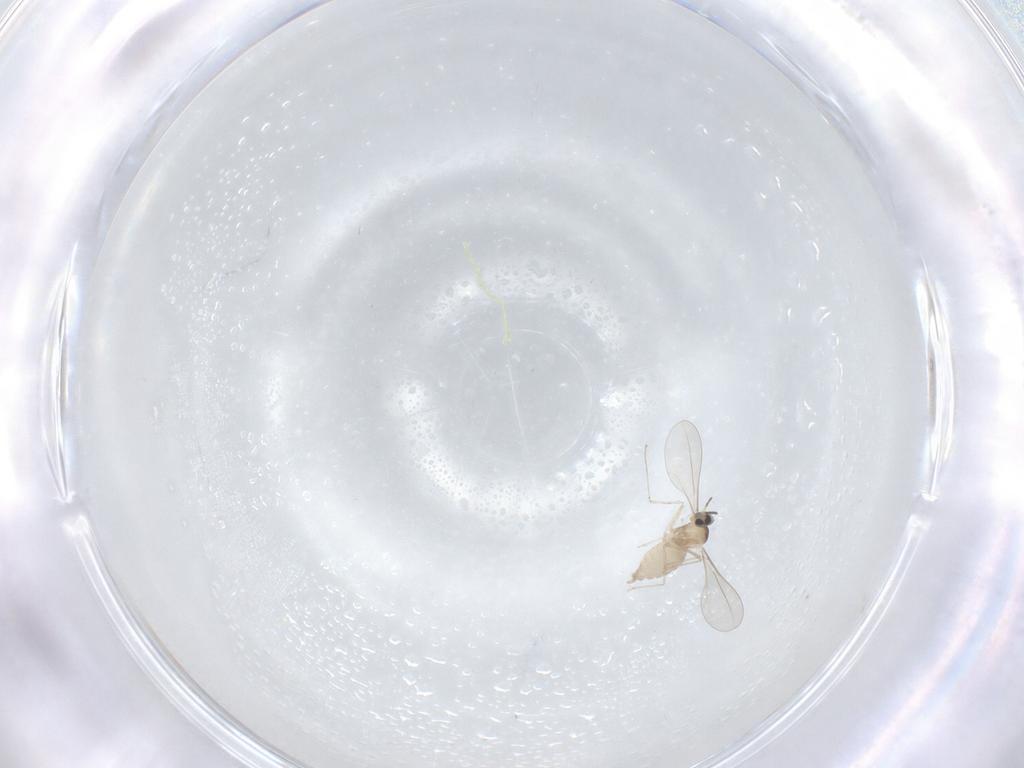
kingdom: Animalia
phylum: Arthropoda
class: Insecta
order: Diptera
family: Cecidomyiidae
